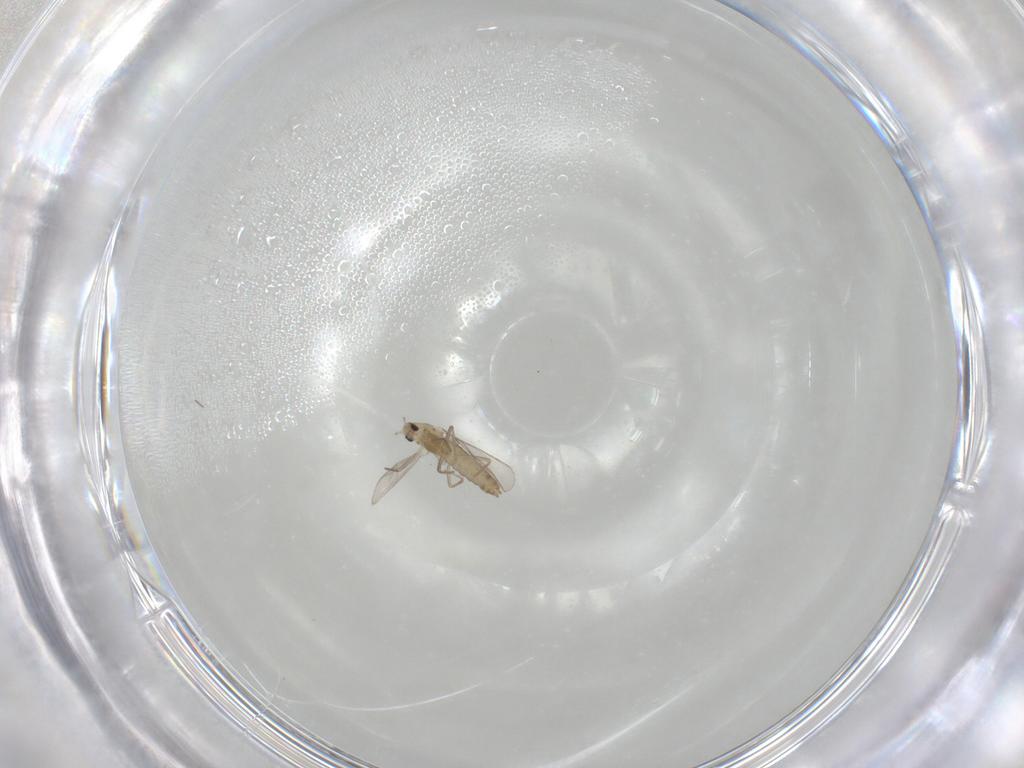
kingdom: Animalia
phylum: Arthropoda
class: Insecta
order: Diptera
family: Chironomidae
